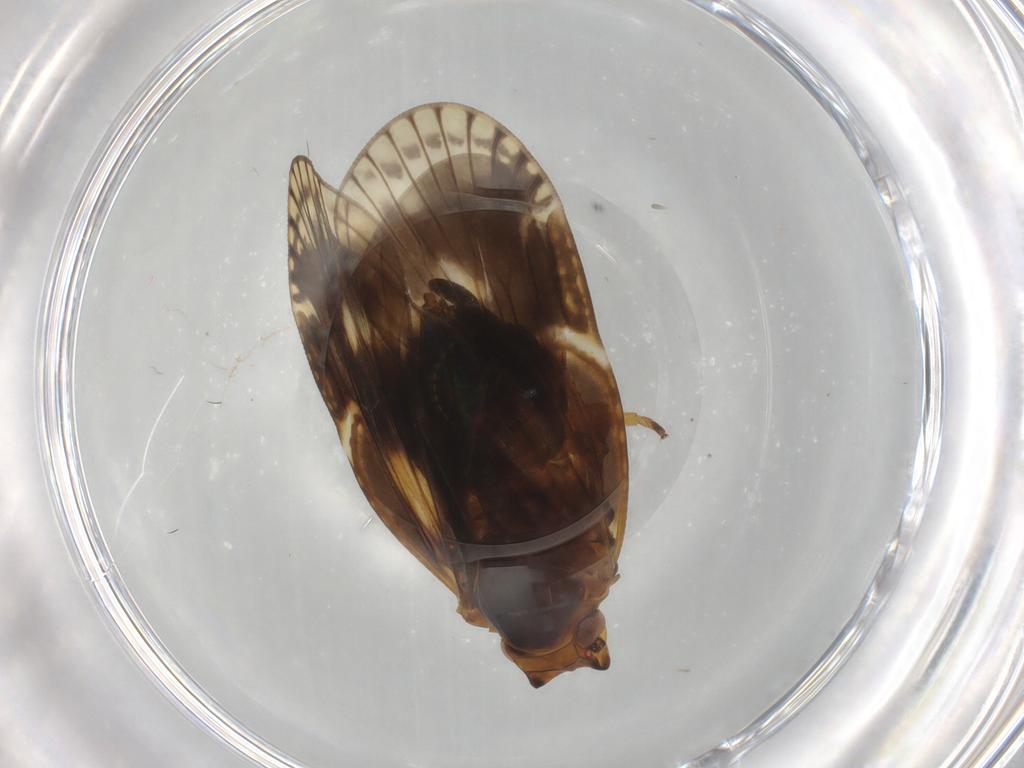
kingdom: Animalia
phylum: Arthropoda
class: Insecta
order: Hemiptera
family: Cixiidae
